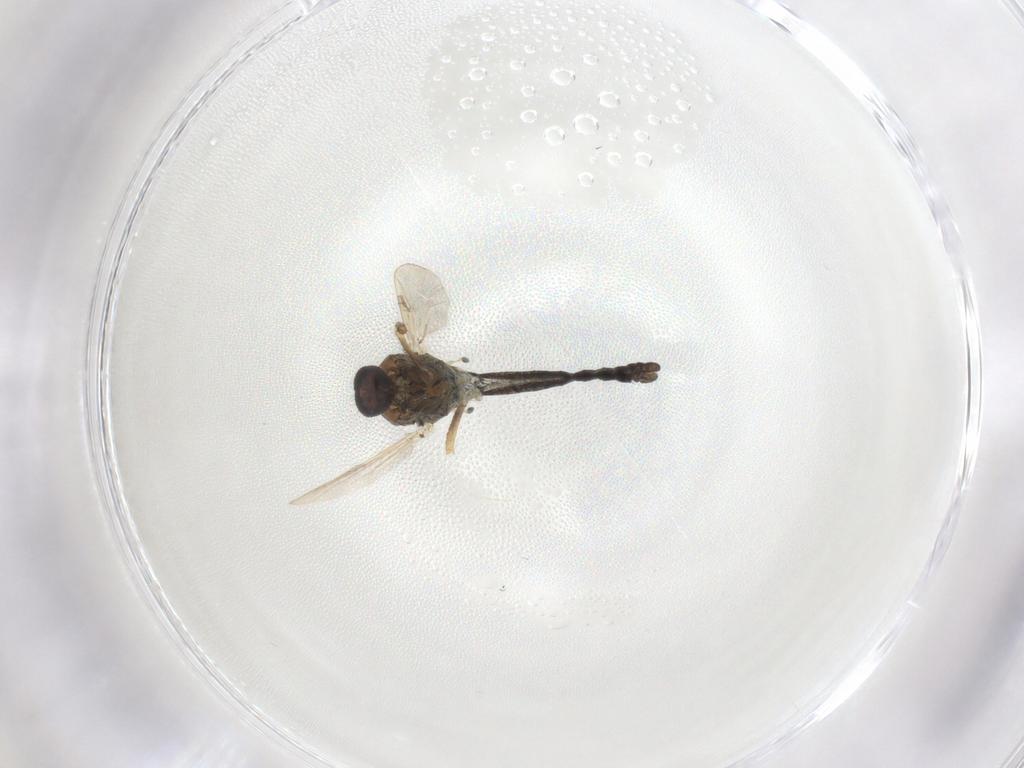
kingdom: Animalia
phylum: Arthropoda
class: Insecta
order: Diptera
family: Ceratopogonidae
